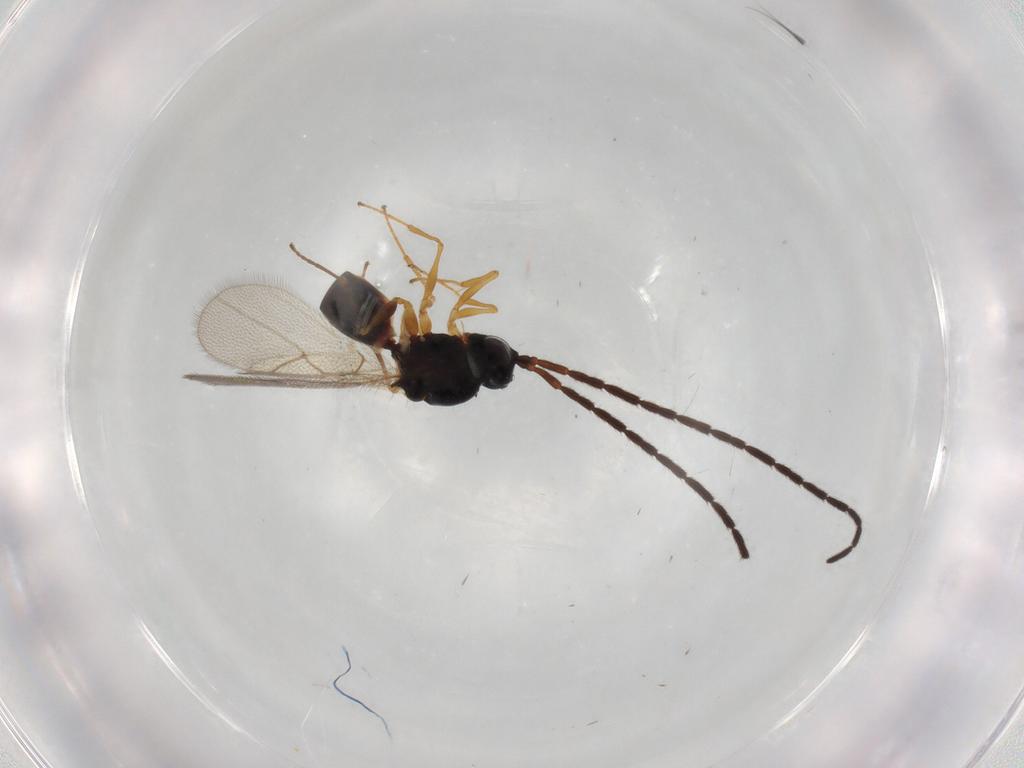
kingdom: Animalia
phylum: Arthropoda
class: Insecta
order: Hymenoptera
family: Figitidae
